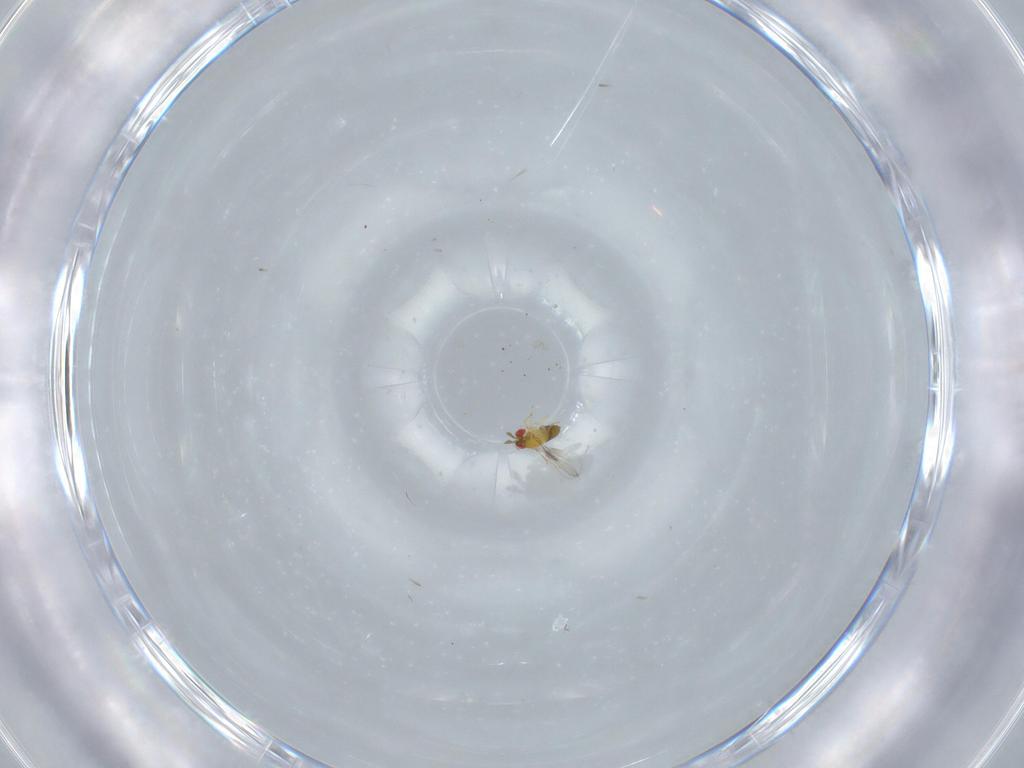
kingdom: Animalia
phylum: Arthropoda
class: Insecta
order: Hymenoptera
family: Trichogrammatidae
